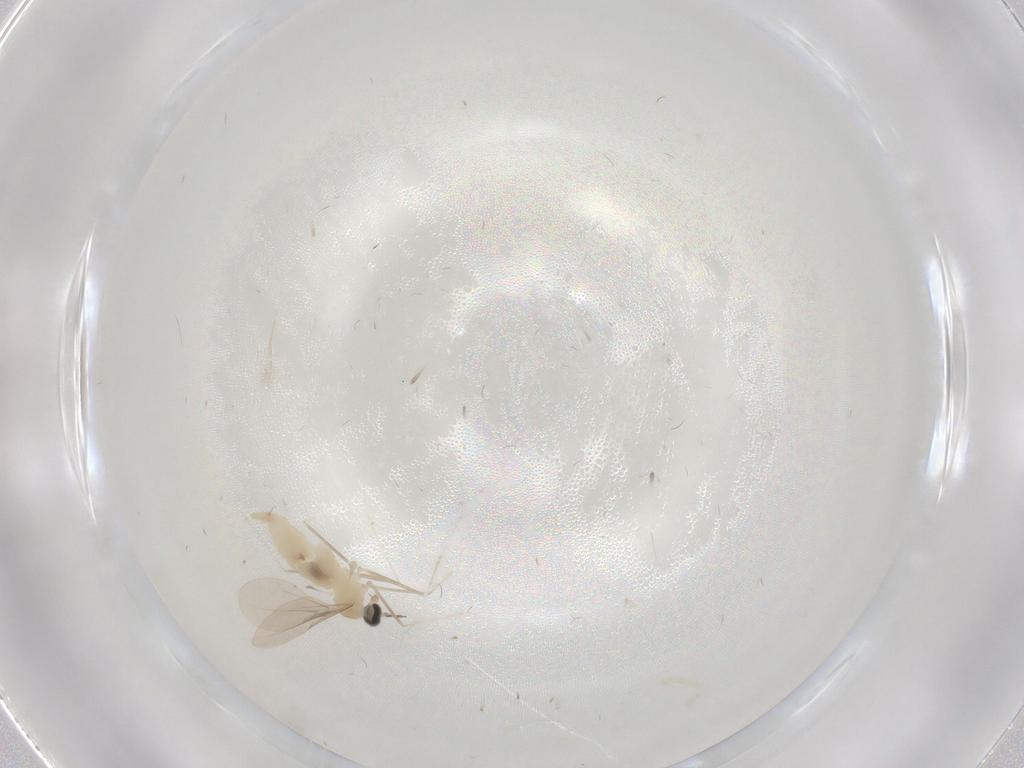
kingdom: Animalia
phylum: Arthropoda
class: Insecta
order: Diptera
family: Cecidomyiidae
